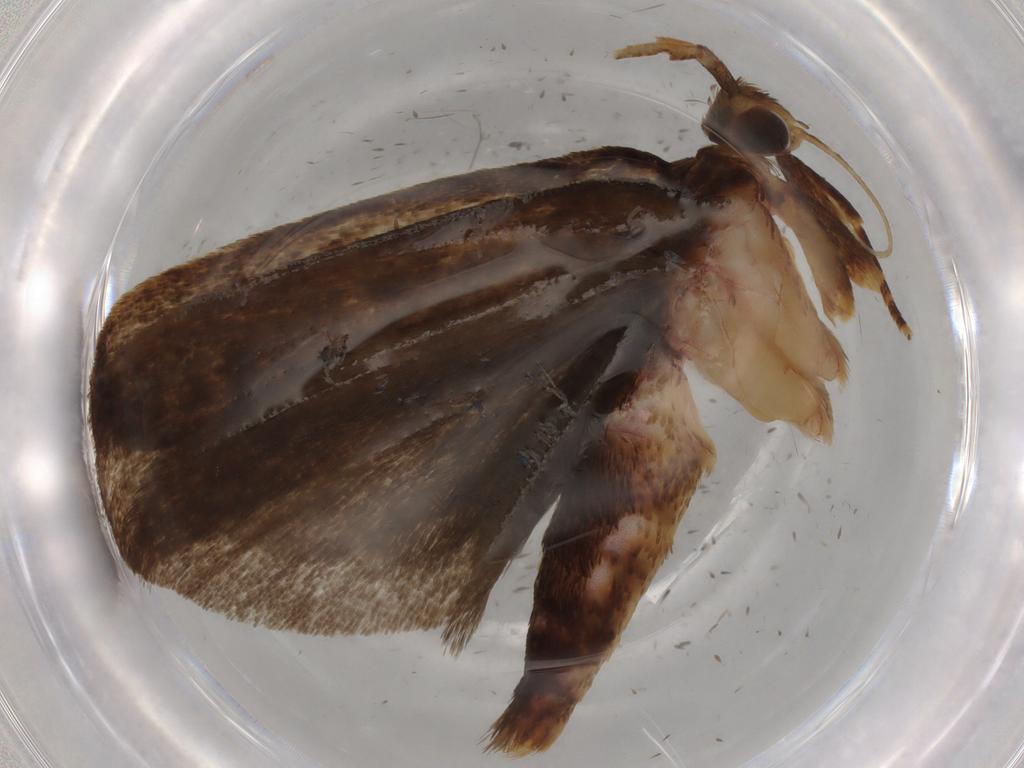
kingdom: Animalia
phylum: Arthropoda
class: Insecta
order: Lepidoptera
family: Autostichidae
